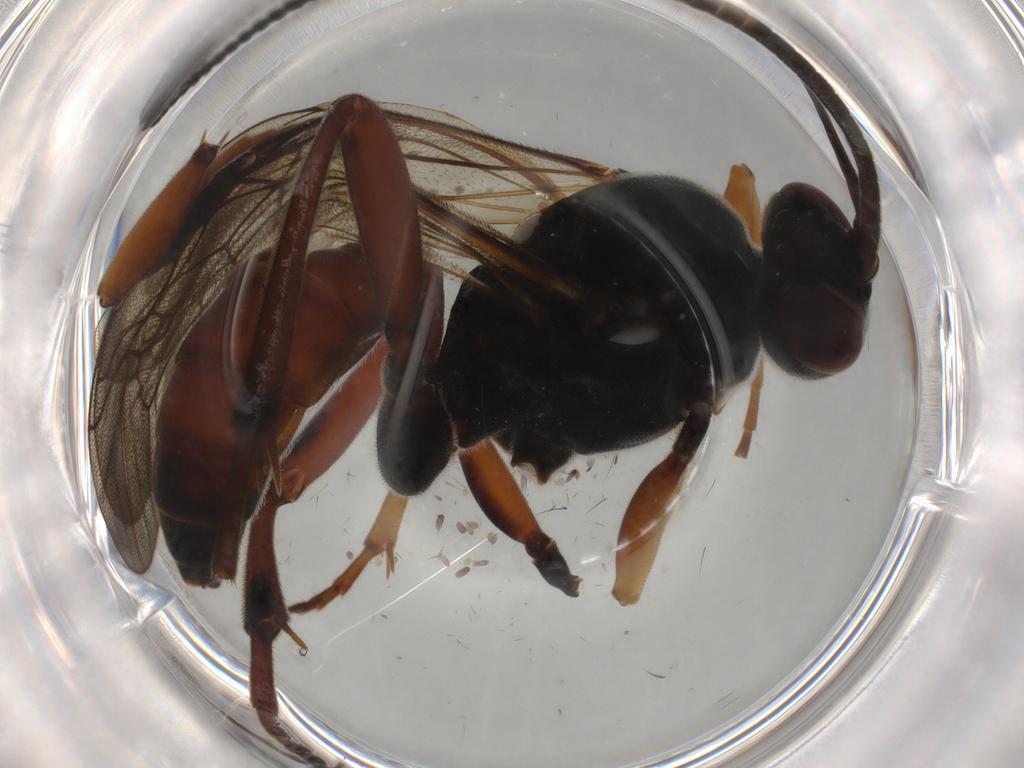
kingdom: Animalia
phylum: Arthropoda
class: Insecta
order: Hymenoptera
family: Ichneumonidae
